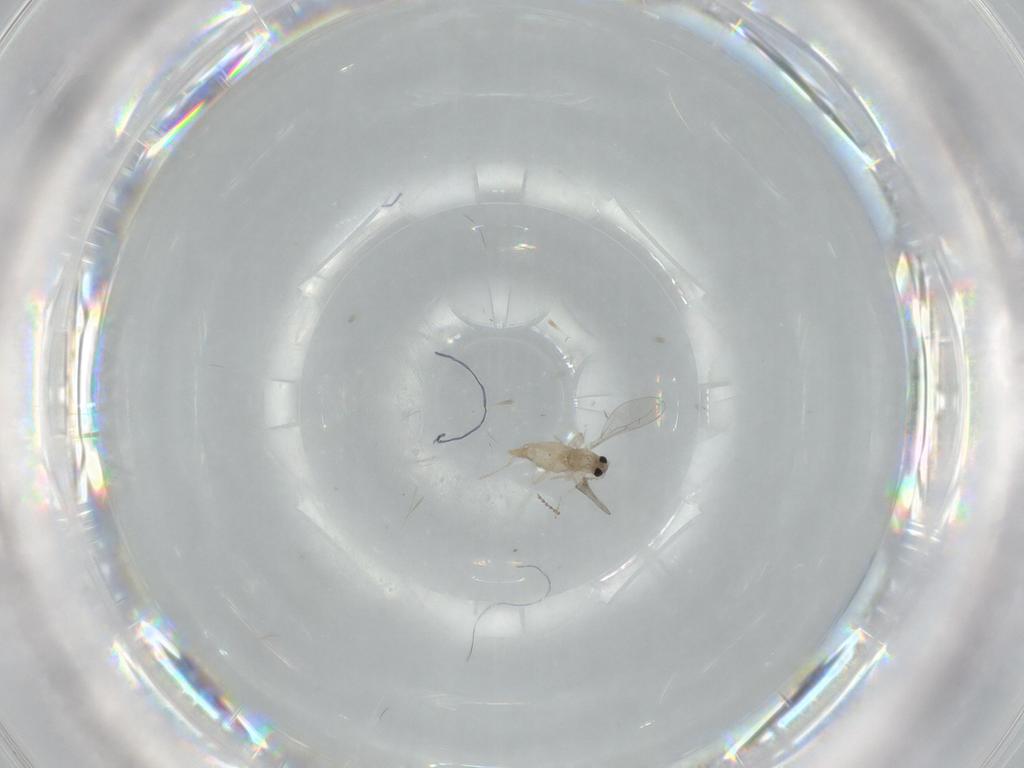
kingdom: Animalia
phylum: Arthropoda
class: Insecta
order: Diptera
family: Cecidomyiidae
